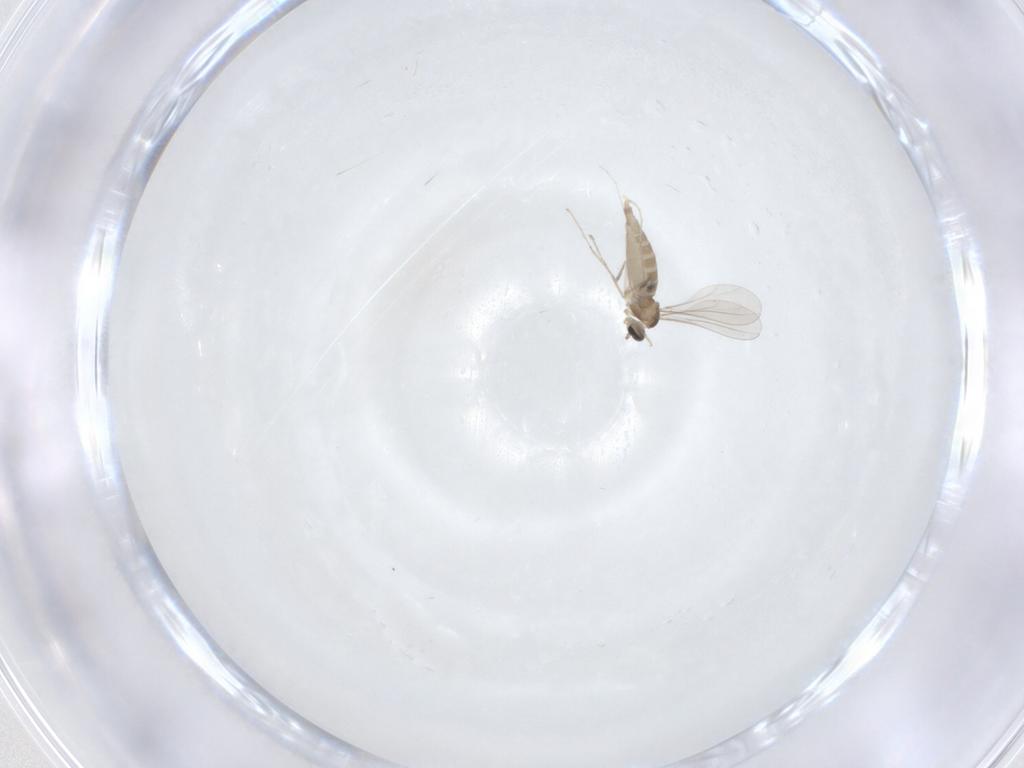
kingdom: Animalia
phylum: Arthropoda
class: Insecta
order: Diptera
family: Phoridae
